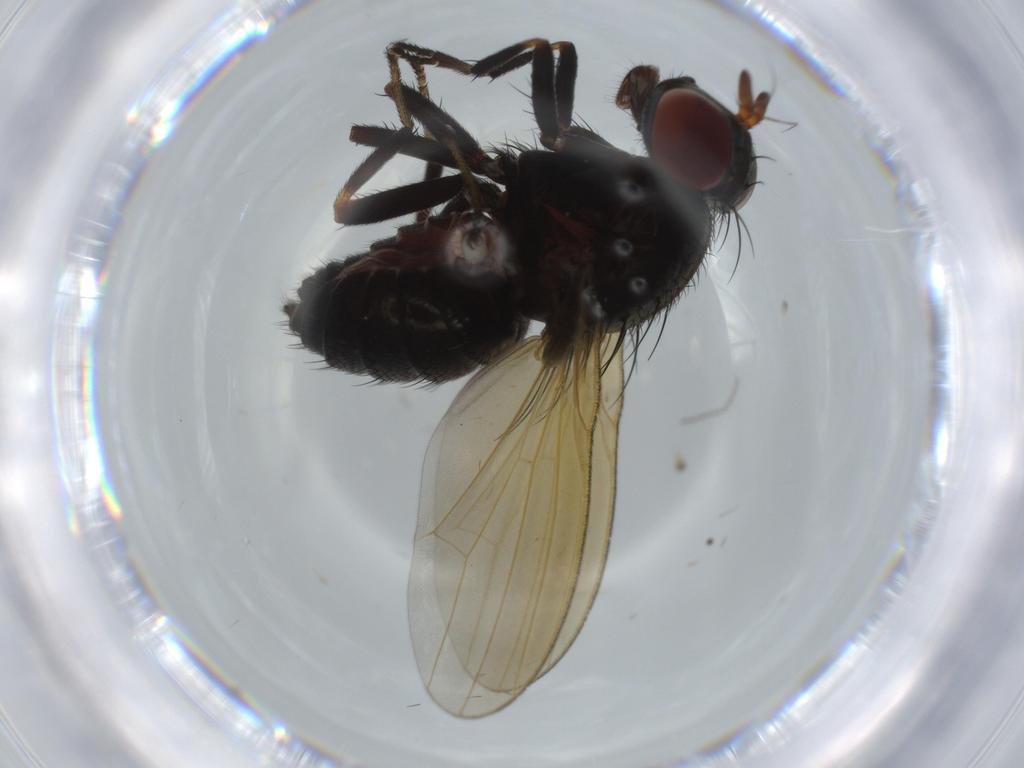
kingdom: Animalia
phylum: Arthropoda
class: Insecta
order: Diptera
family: Lauxaniidae
